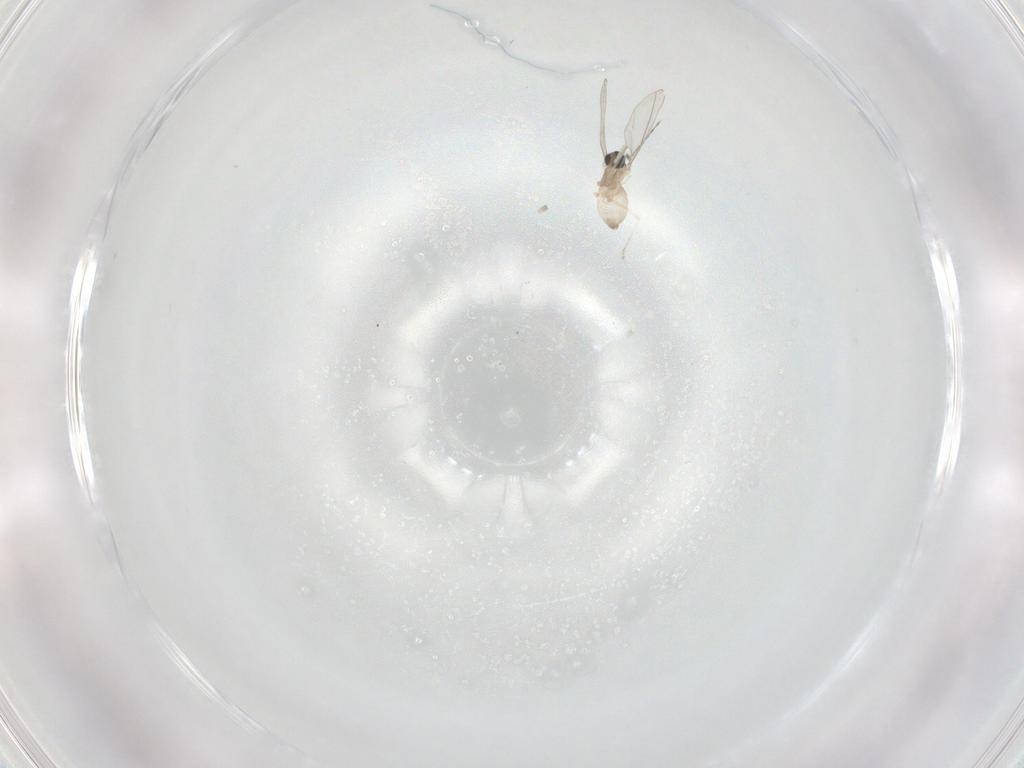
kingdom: Animalia
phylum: Arthropoda
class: Insecta
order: Diptera
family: Cecidomyiidae
